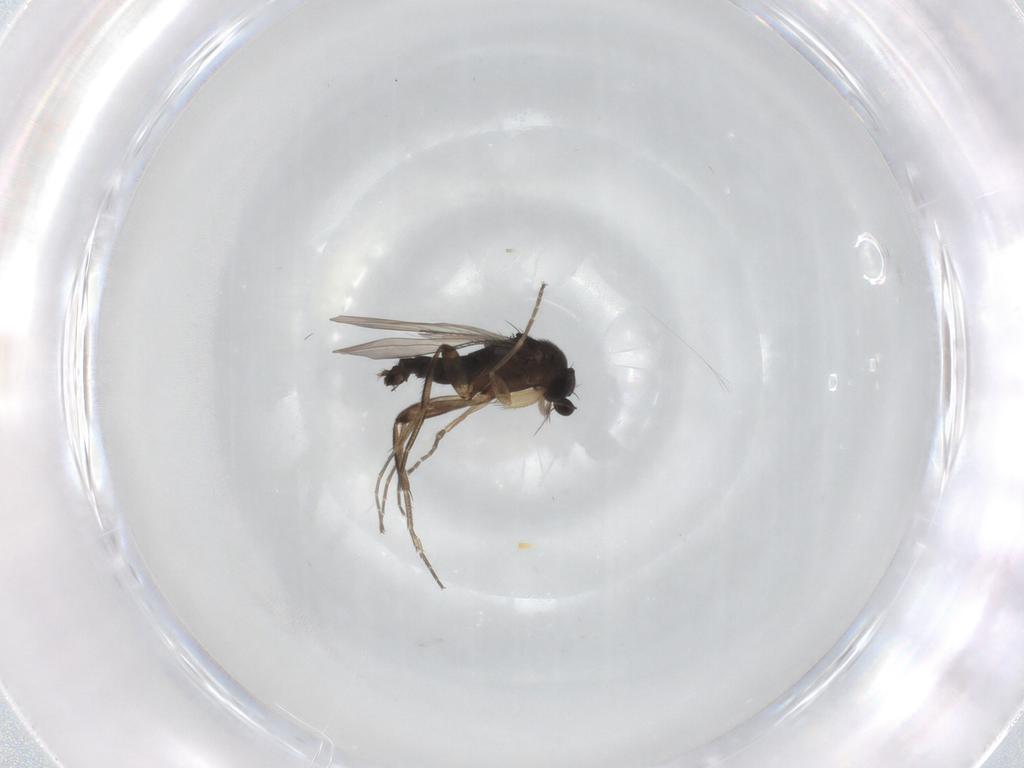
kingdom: Animalia
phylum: Arthropoda
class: Insecta
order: Diptera
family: Phoridae
